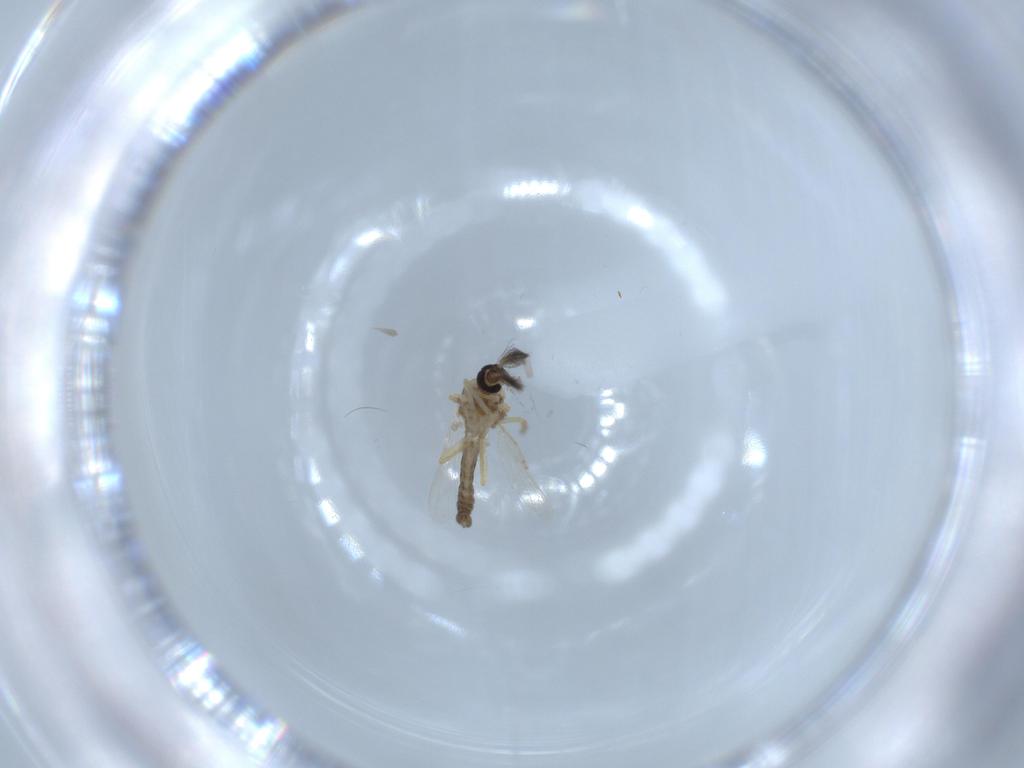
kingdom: Animalia
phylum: Arthropoda
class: Insecta
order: Diptera
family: Ceratopogonidae
